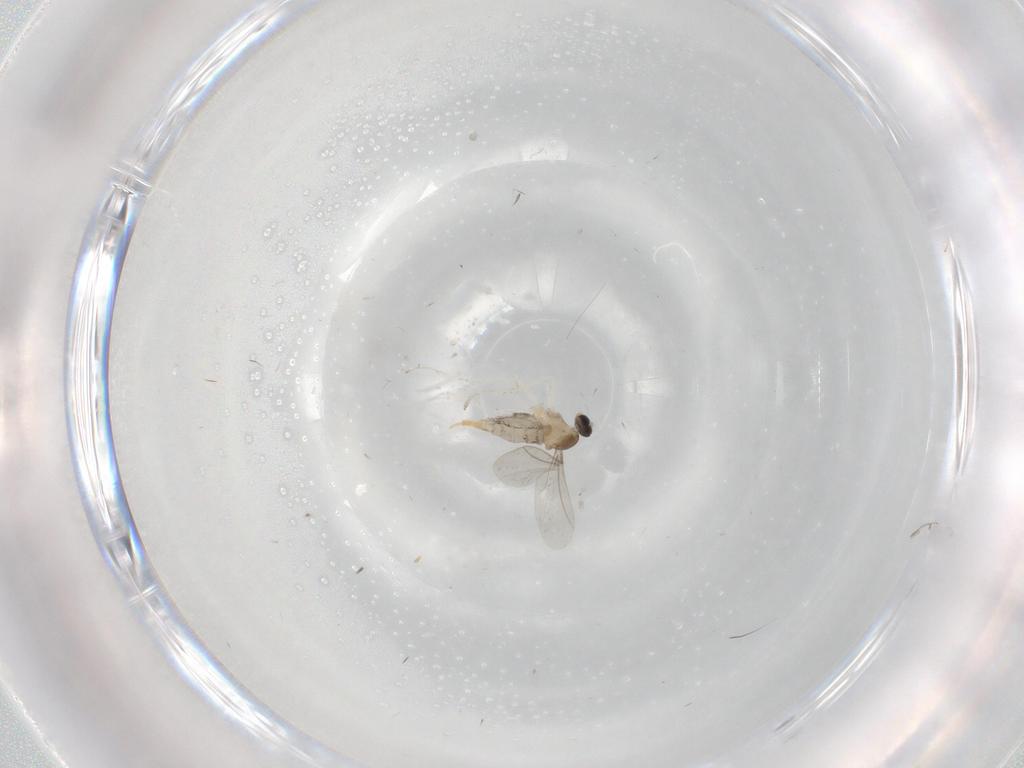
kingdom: Animalia
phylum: Arthropoda
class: Insecta
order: Diptera
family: Cecidomyiidae
